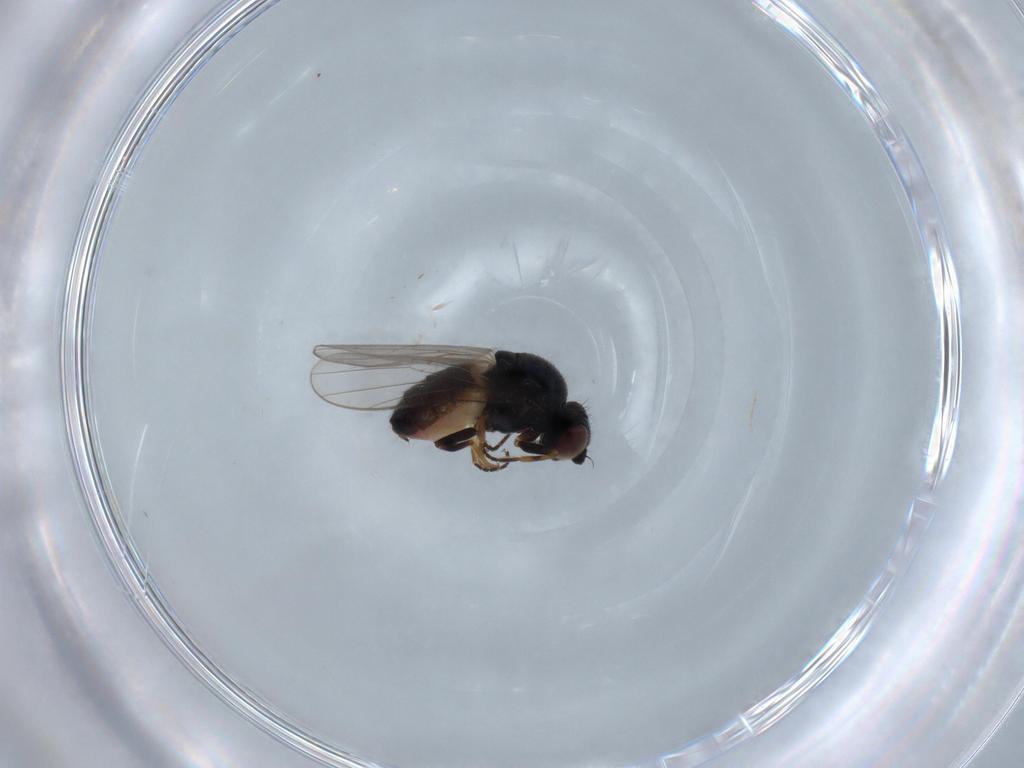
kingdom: Animalia
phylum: Arthropoda
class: Insecta
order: Diptera
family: Chloropidae
